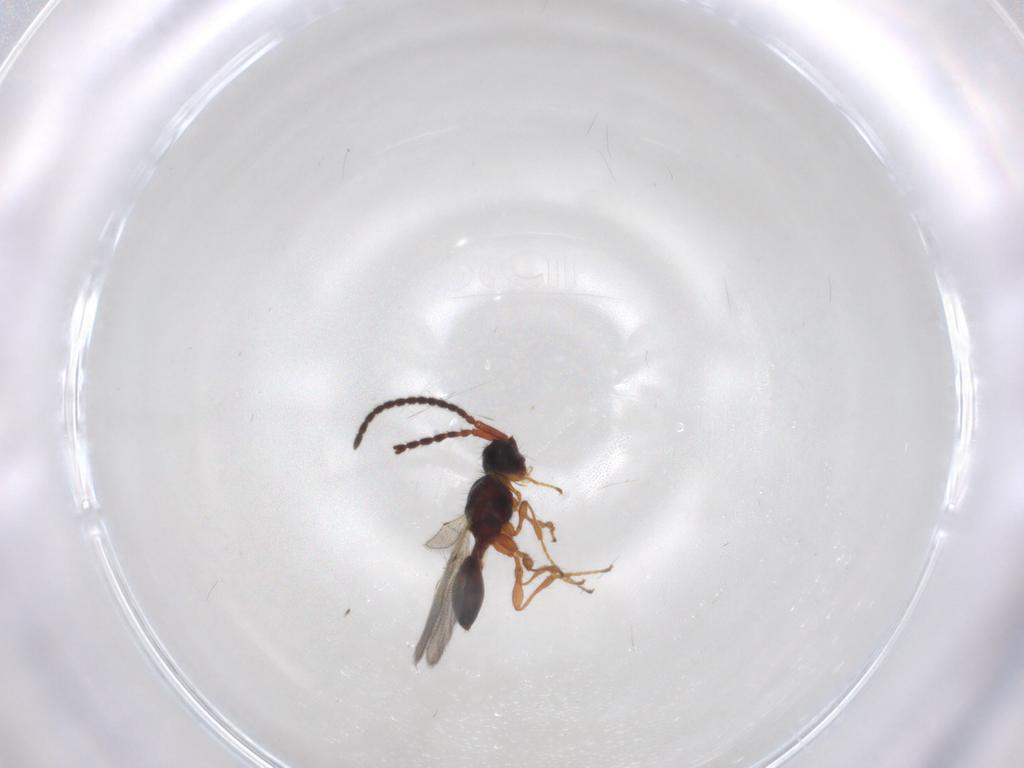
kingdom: Animalia
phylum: Arthropoda
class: Insecta
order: Hymenoptera
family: Diapriidae
